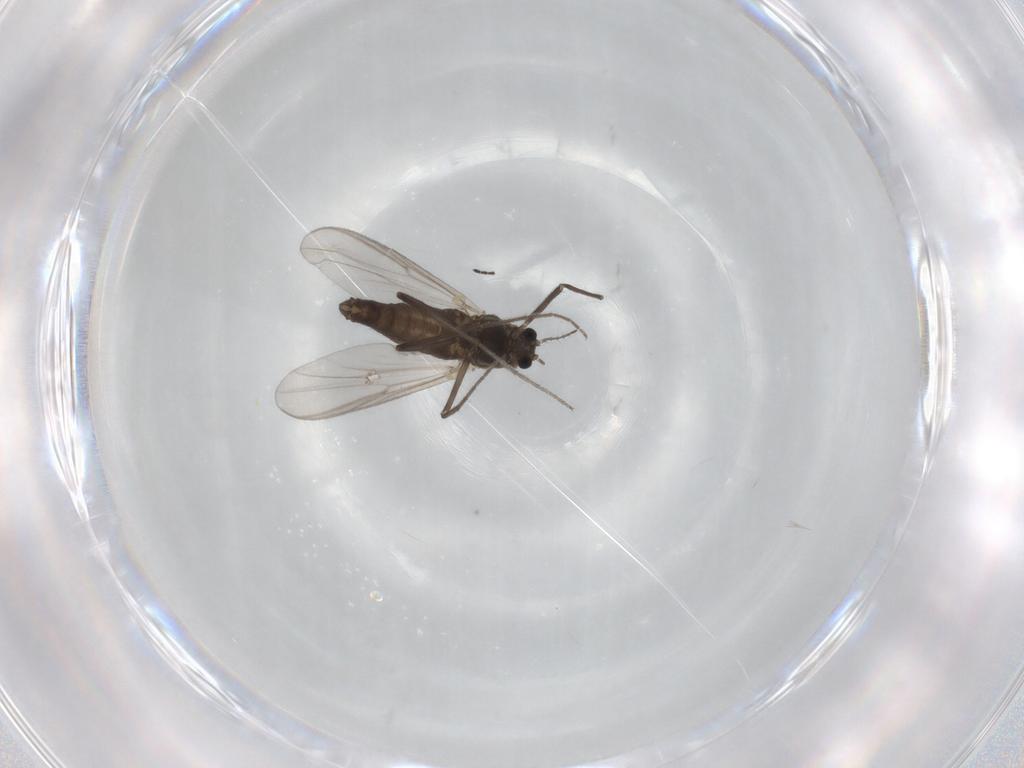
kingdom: Animalia
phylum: Arthropoda
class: Insecta
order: Diptera
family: Chironomidae
